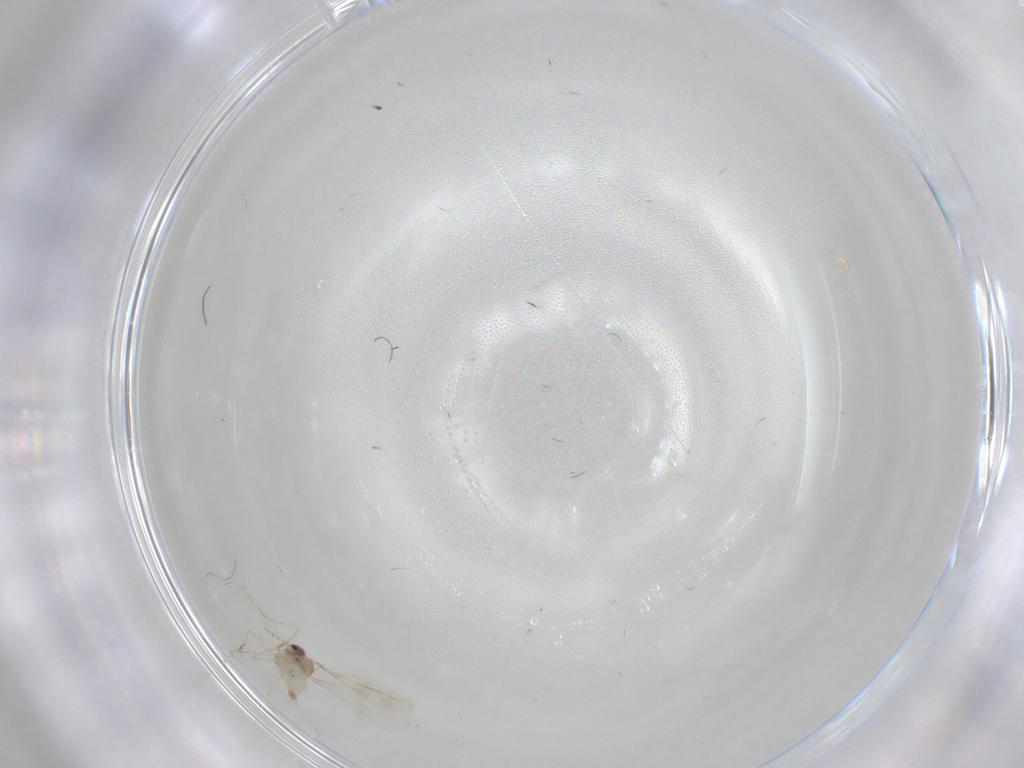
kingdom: Animalia
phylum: Arthropoda
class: Insecta
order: Diptera
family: Cecidomyiidae
